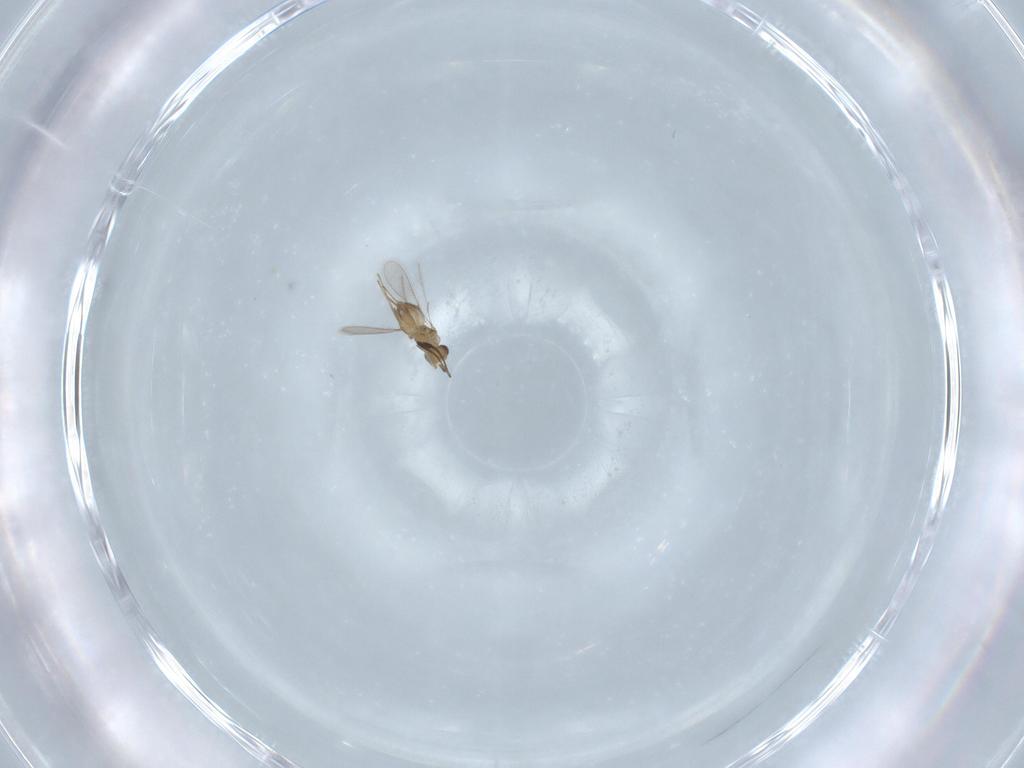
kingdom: Animalia
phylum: Arthropoda
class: Insecta
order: Hymenoptera
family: Mymaridae
